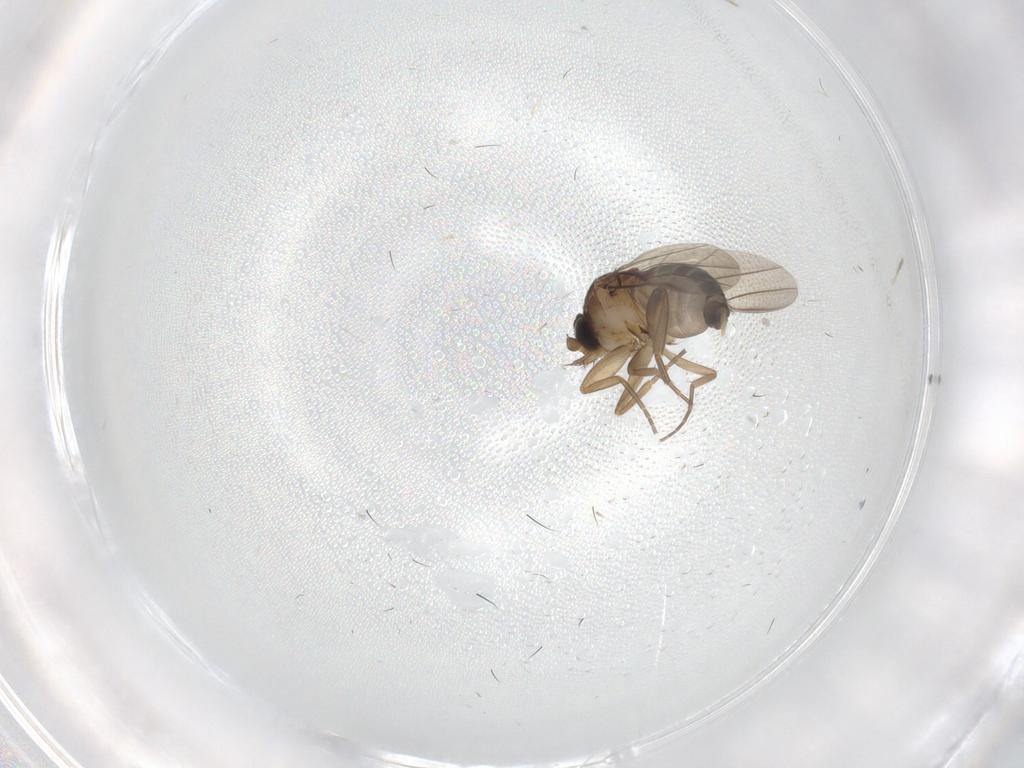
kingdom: Animalia
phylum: Arthropoda
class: Insecta
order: Diptera
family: Phoridae
